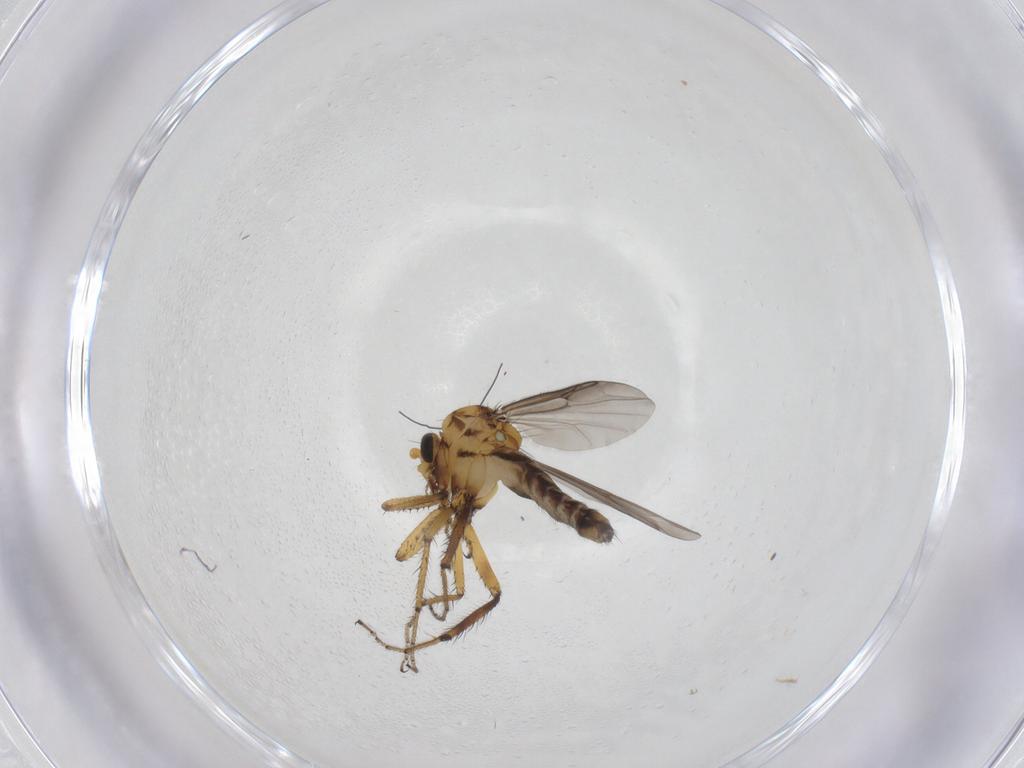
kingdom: Animalia
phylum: Arthropoda
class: Insecta
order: Diptera
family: Ceratopogonidae
